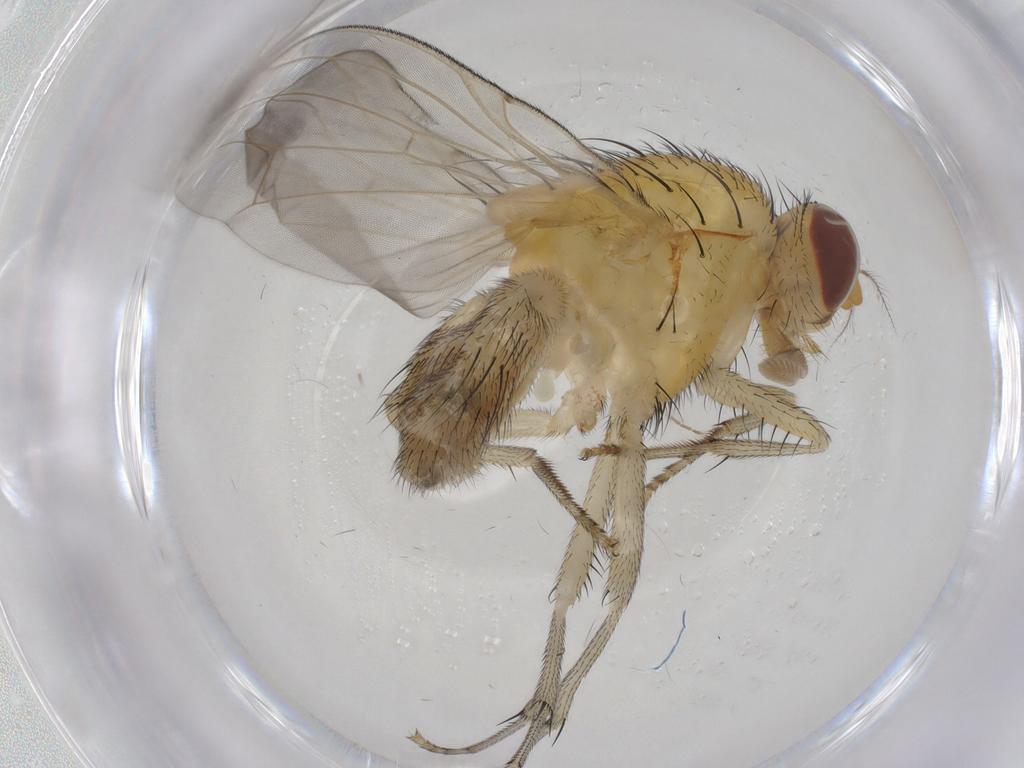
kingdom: Animalia
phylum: Arthropoda
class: Insecta
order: Diptera
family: Cecidomyiidae
